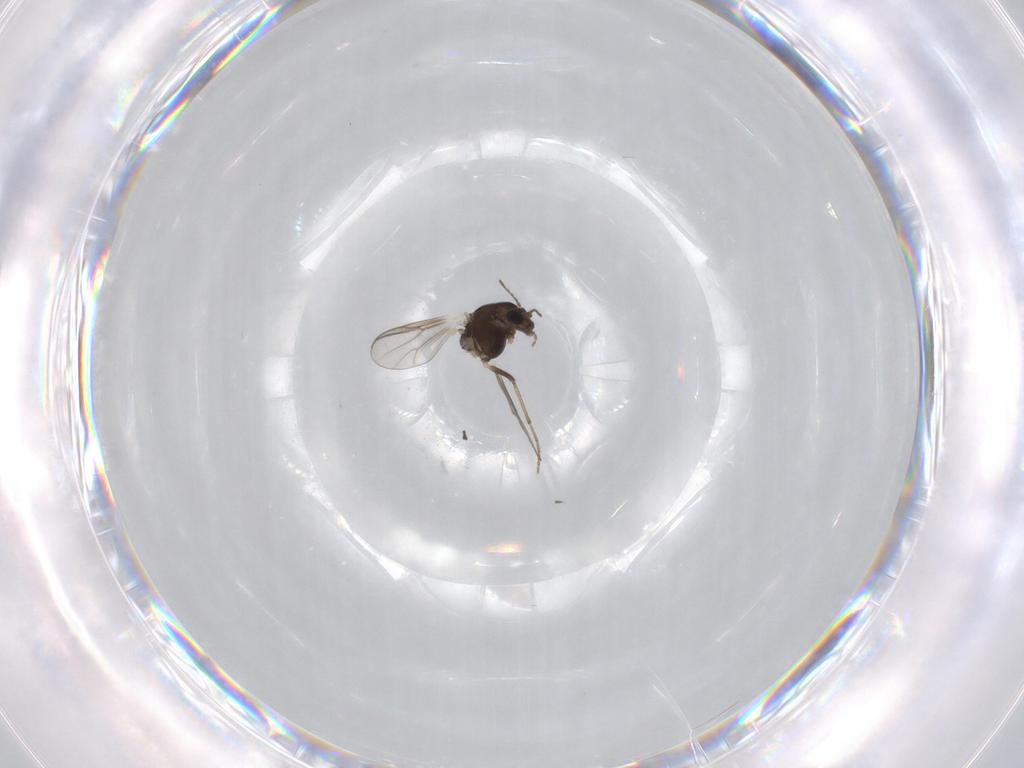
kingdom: Animalia
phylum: Arthropoda
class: Insecta
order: Diptera
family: Chironomidae
